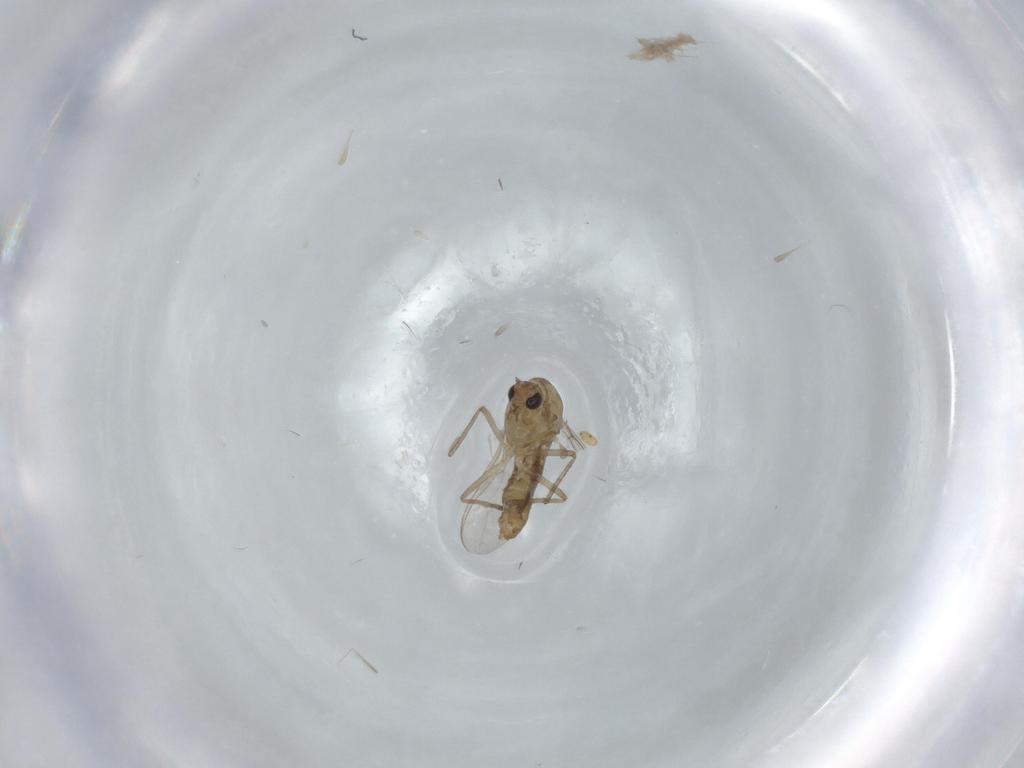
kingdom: Animalia
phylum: Arthropoda
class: Insecta
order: Diptera
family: Chironomidae
